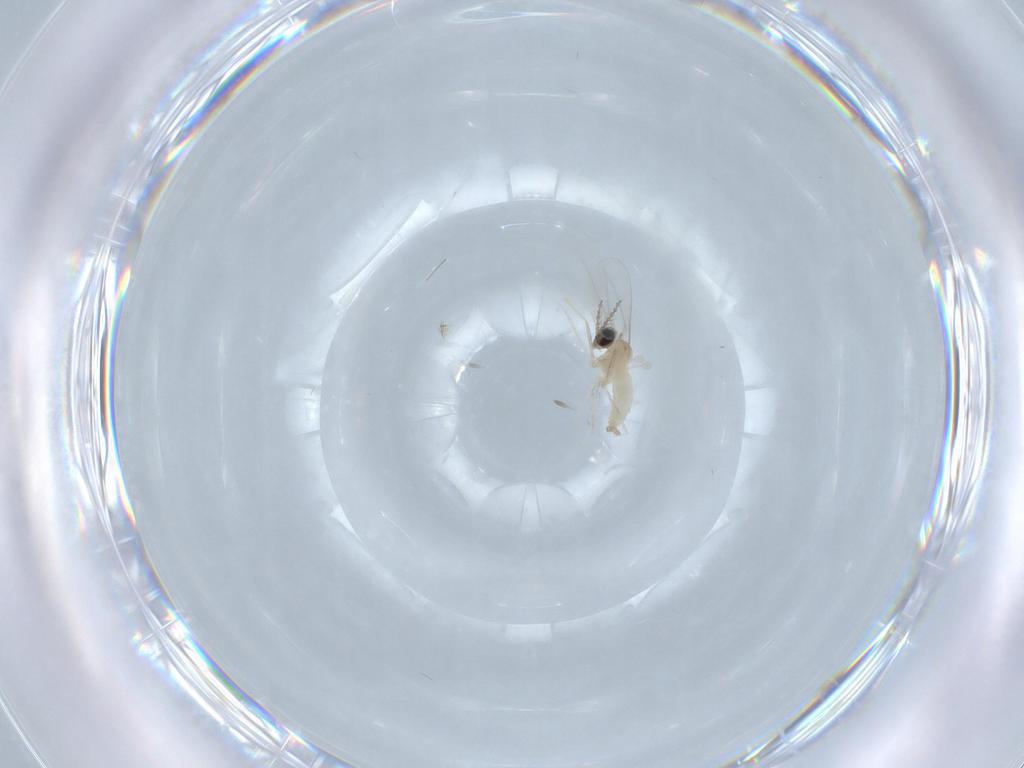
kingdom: Animalia
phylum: Arthropoda
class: Insecta
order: Diptera
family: Cecidomyiidae
